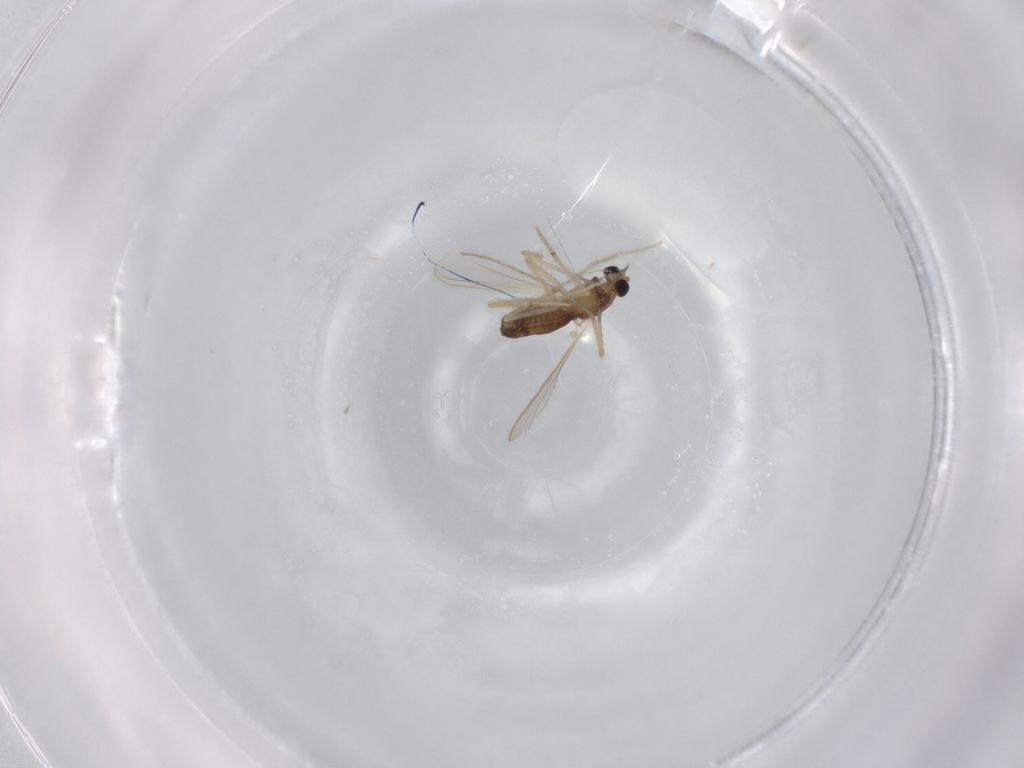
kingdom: Animalia
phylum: Arthropoda
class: Insecta
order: Diptera
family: Chironomidae
